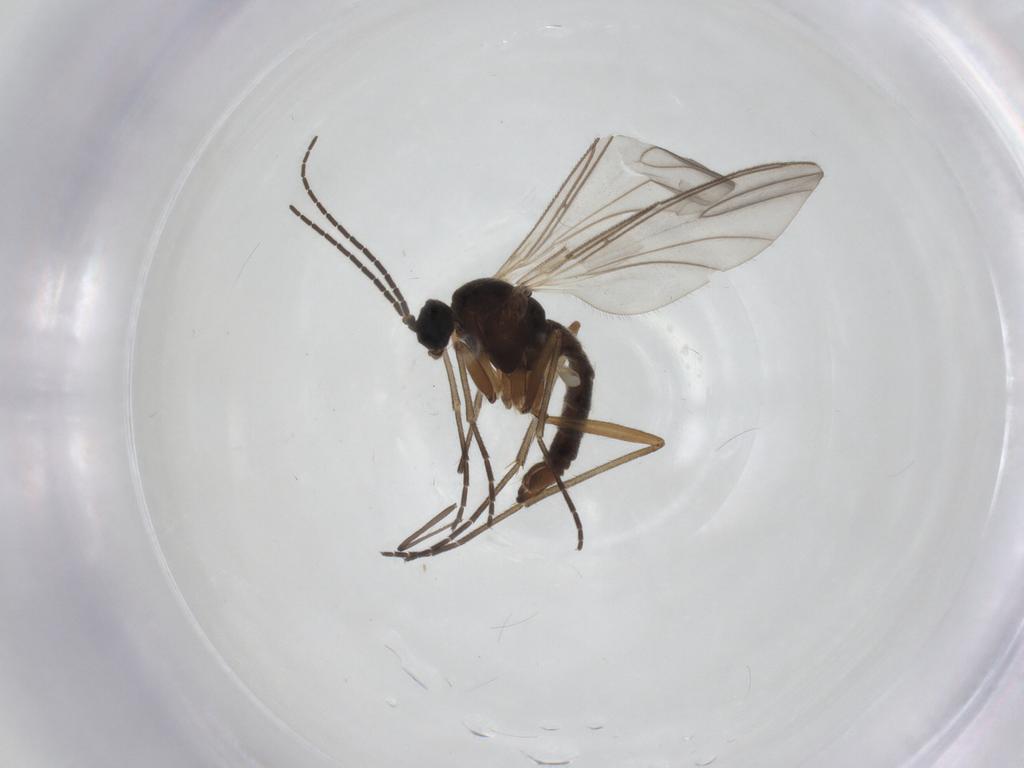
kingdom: Animalia
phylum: Arthropoda
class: Insecta
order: Diptera
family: Sciaridae
